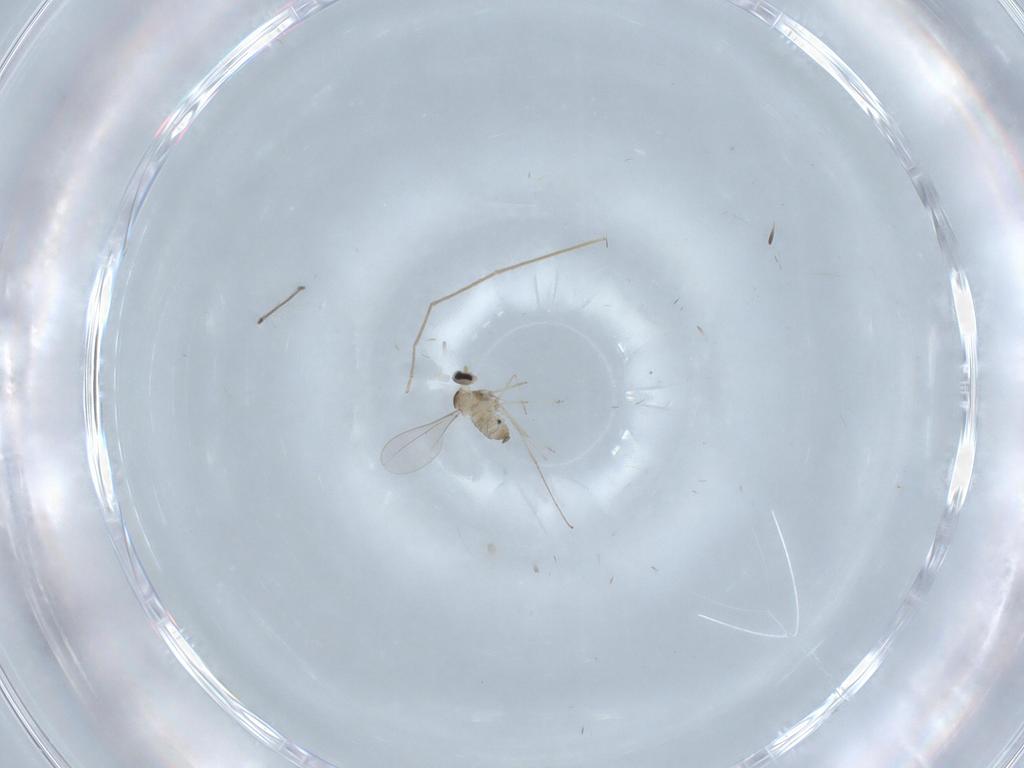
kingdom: Animalia
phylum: Arthropoda
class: Insecta
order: Diptera
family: Cecidomyiidae
